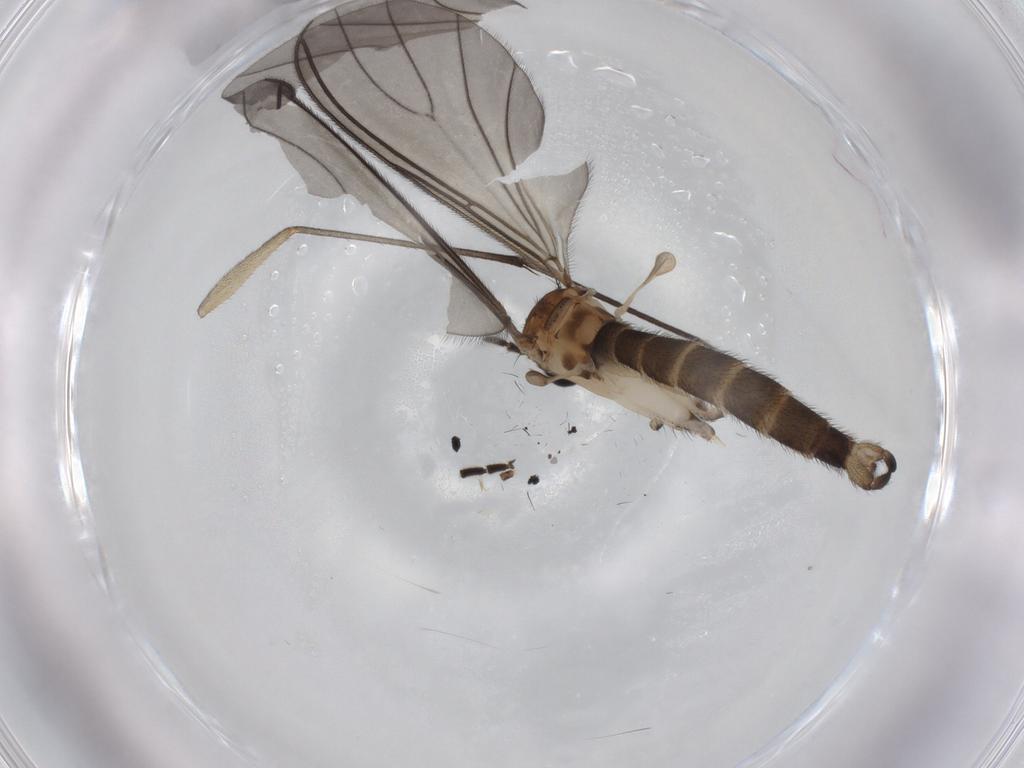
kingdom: Animalia
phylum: Arthropoda
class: Insecta
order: Diptera
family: Sciaridae
